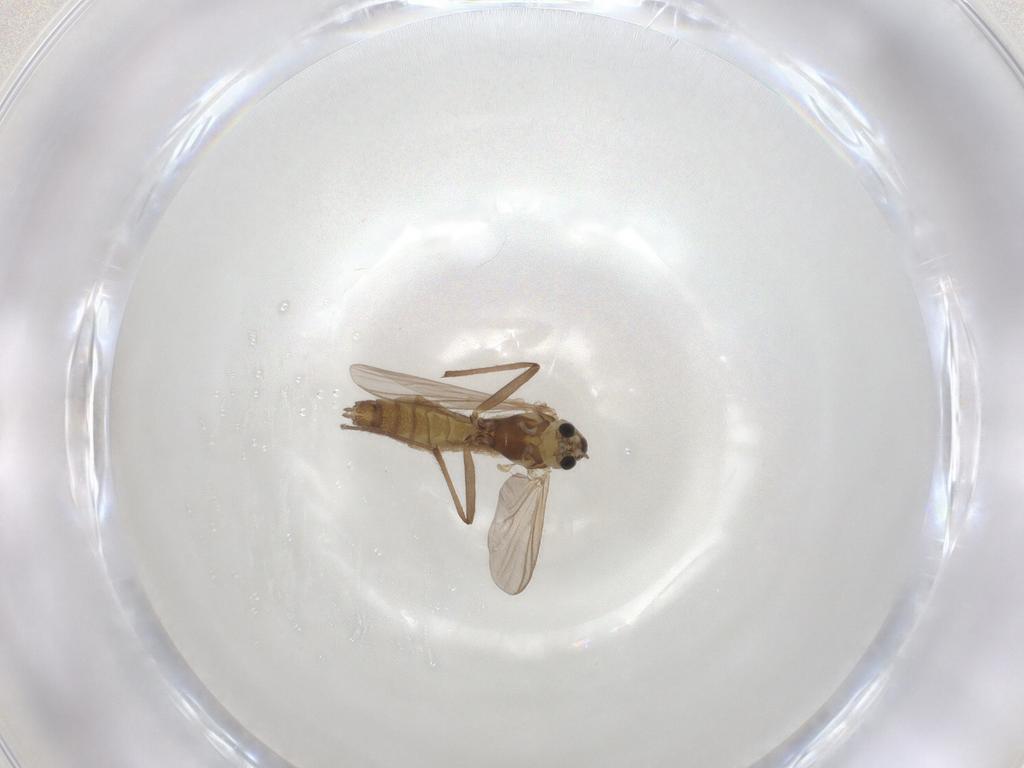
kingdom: Animalia
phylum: Arthropoda
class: Insecta
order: Diptera
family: Chironomidae
